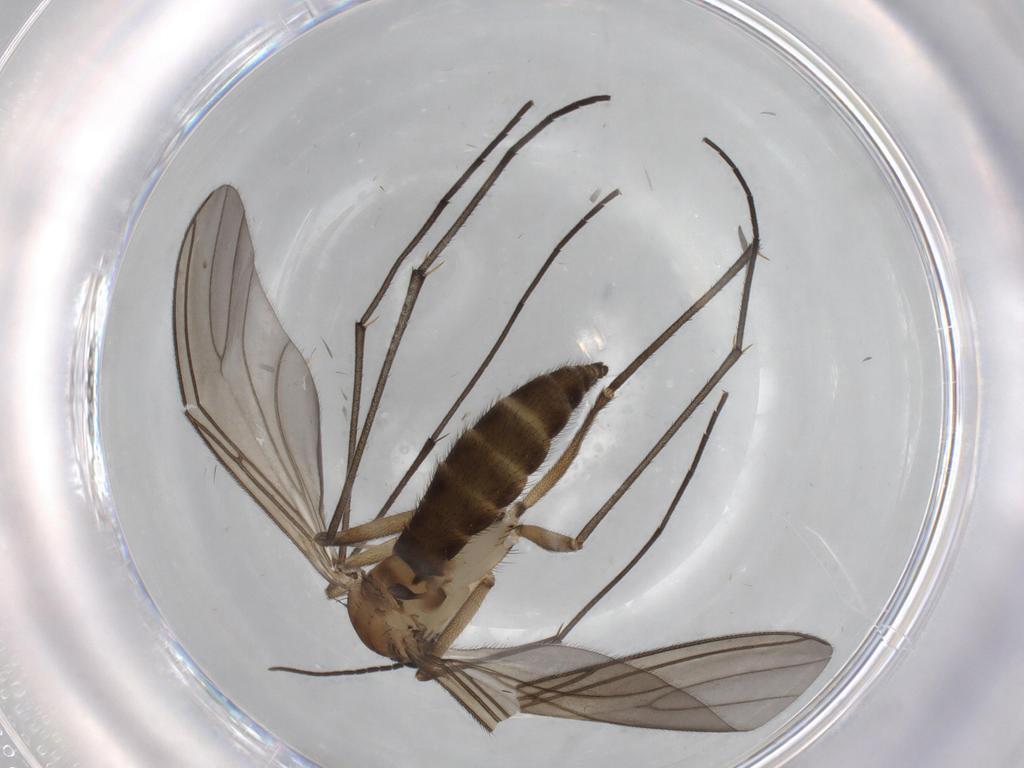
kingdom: Animalia
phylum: Arthropoda
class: Insecta
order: Diptera
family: Sciaridae
